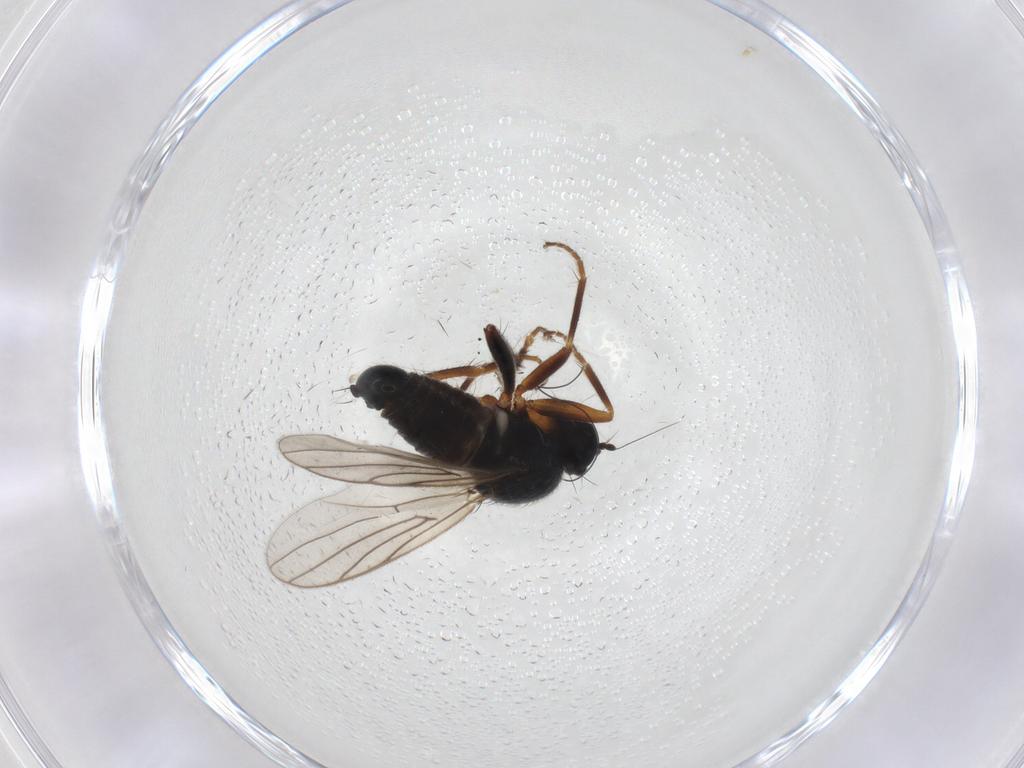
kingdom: Animalia
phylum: Arthropoda
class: Insecta
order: Diptera
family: Hybotidae
